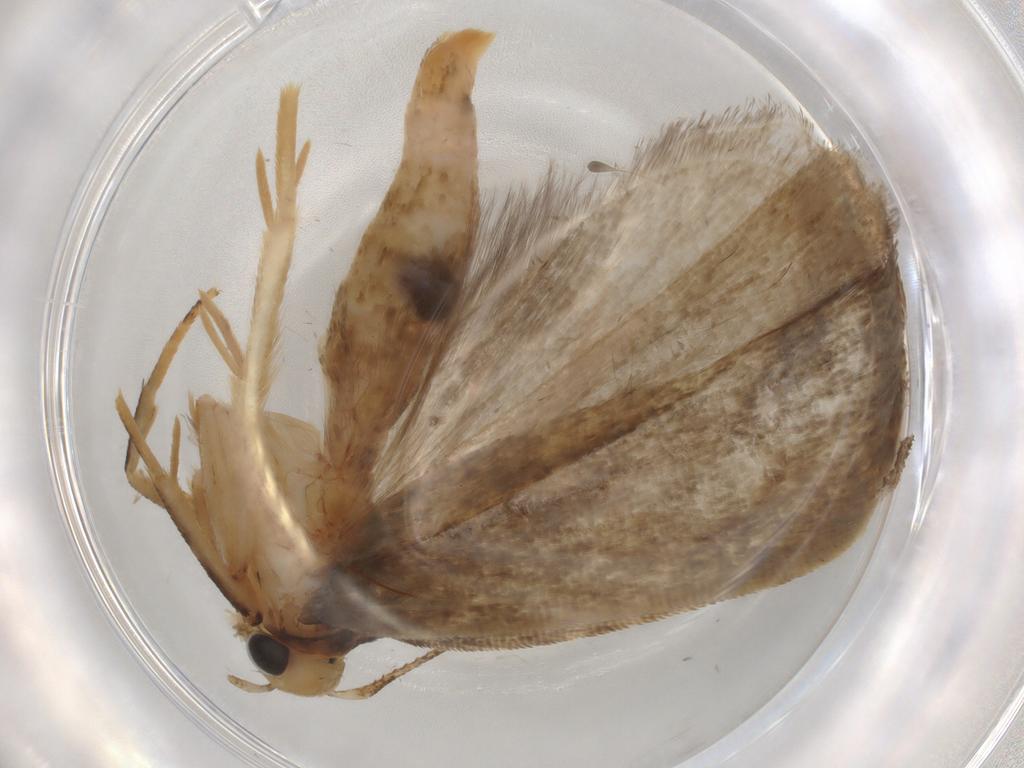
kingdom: Animalia
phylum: Arthropoda
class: Insecta
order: Lepidoptera
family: Gelechiidae
